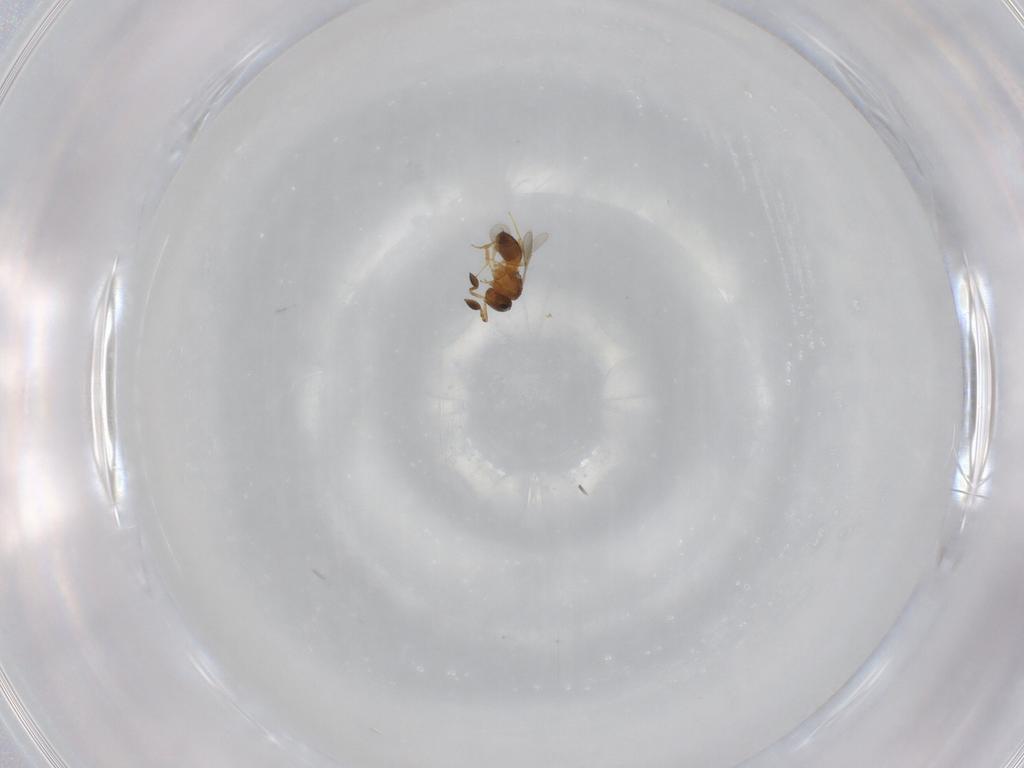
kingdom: Animalia
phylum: Arthropoda
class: Insecta
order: Hymenoptera
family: Scelionidae
